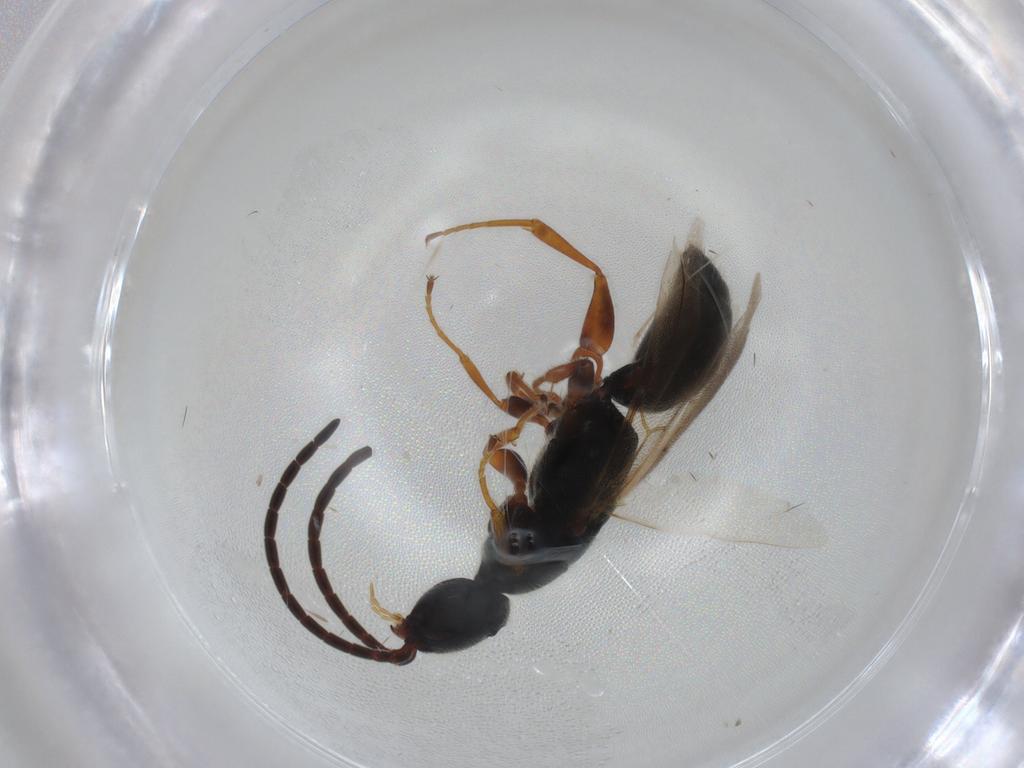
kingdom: Animalia
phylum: Arthropoda
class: Insecta
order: Hymenoptera
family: Bethylidae
